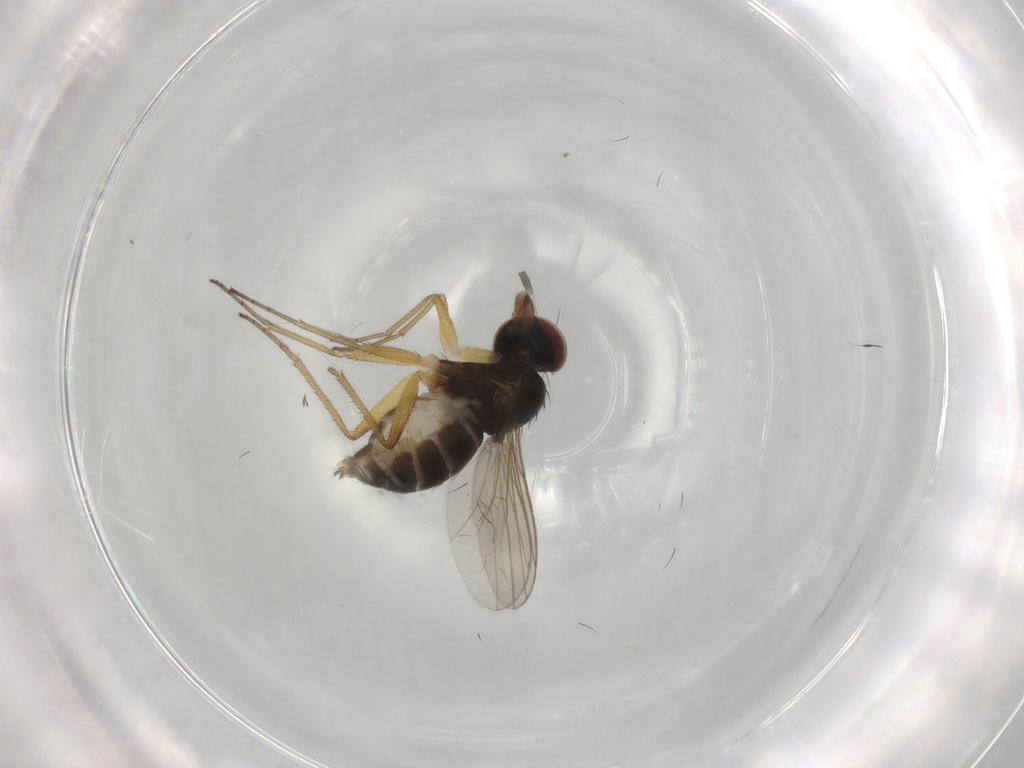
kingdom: Animalia
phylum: Arthropoda
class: Insecta
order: Diptera
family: Dolichopodidae
